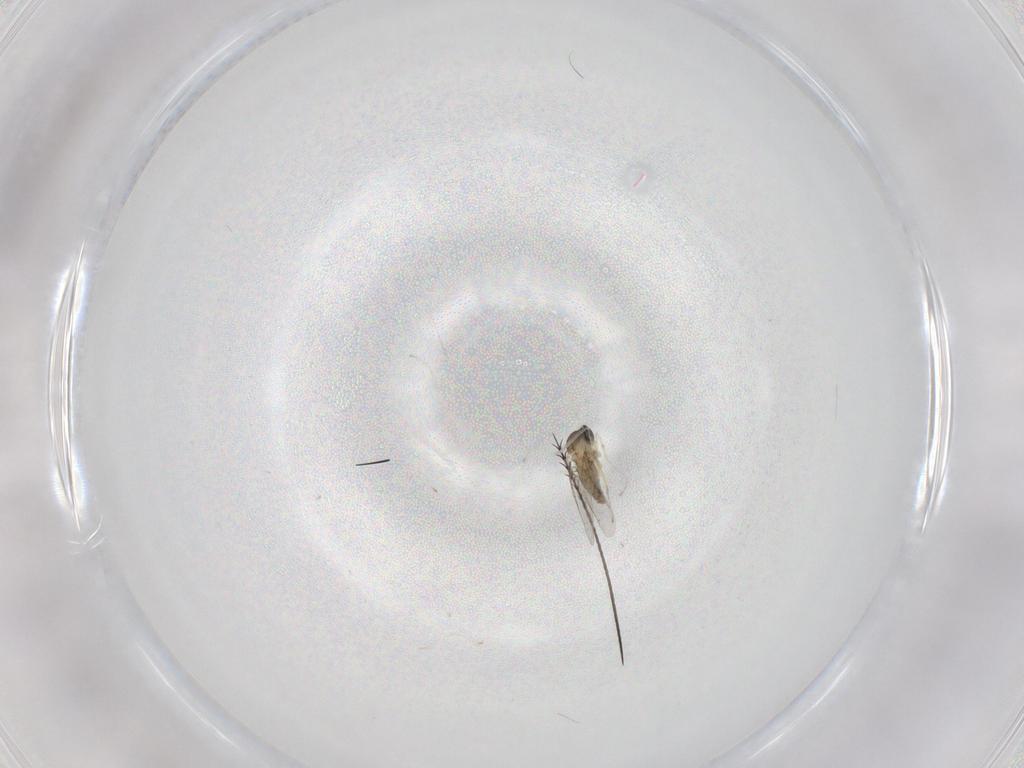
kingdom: Animalia
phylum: Arthropoda
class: Insecta
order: Diptera
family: Cecidomyiidae
